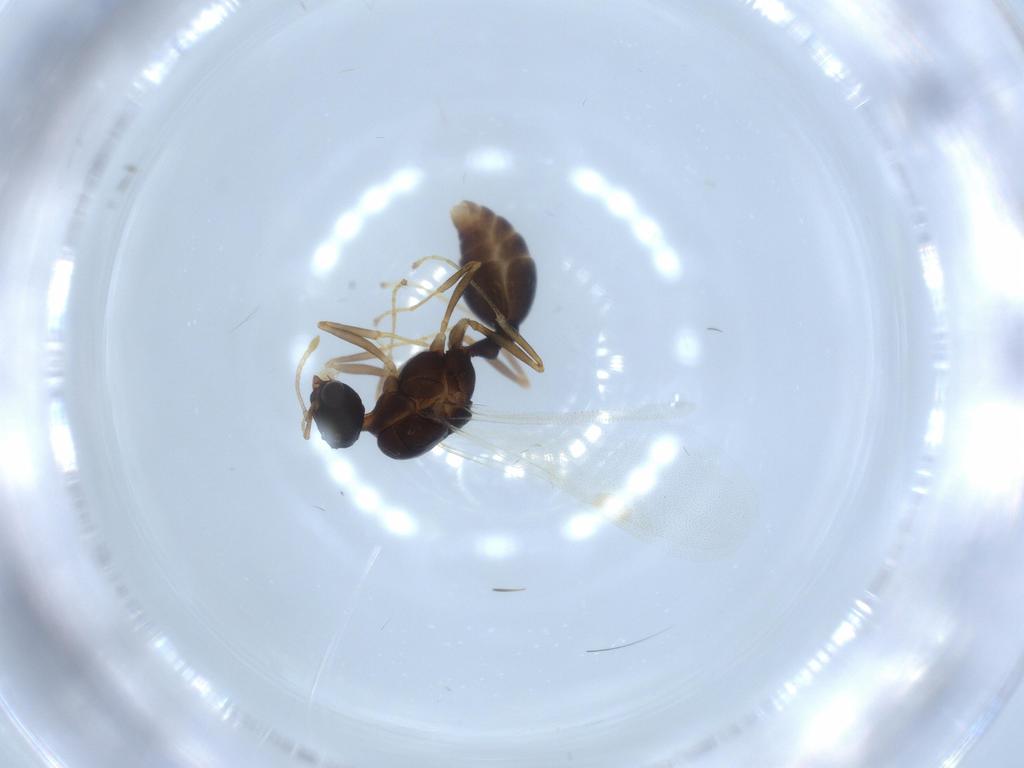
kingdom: Animalia
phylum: Arthropoda
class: Insecta
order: Hymenoptera
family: Formicidae
